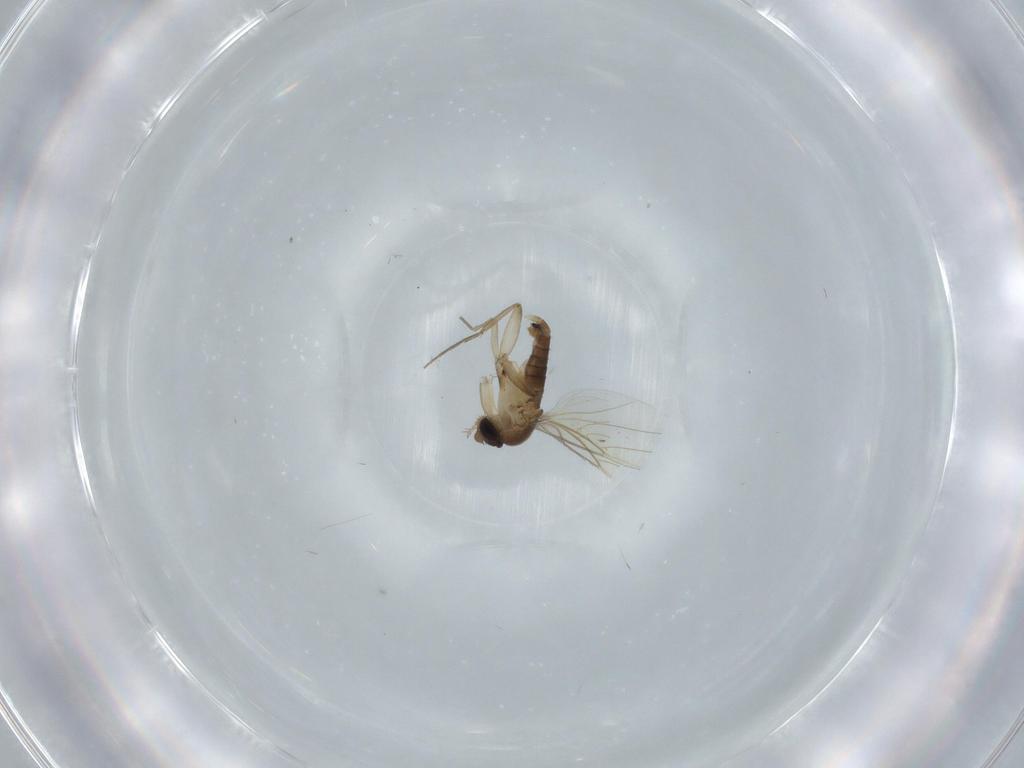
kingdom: Animalia
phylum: Arthropoda
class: Insecta
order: Diptera
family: Phoridae
